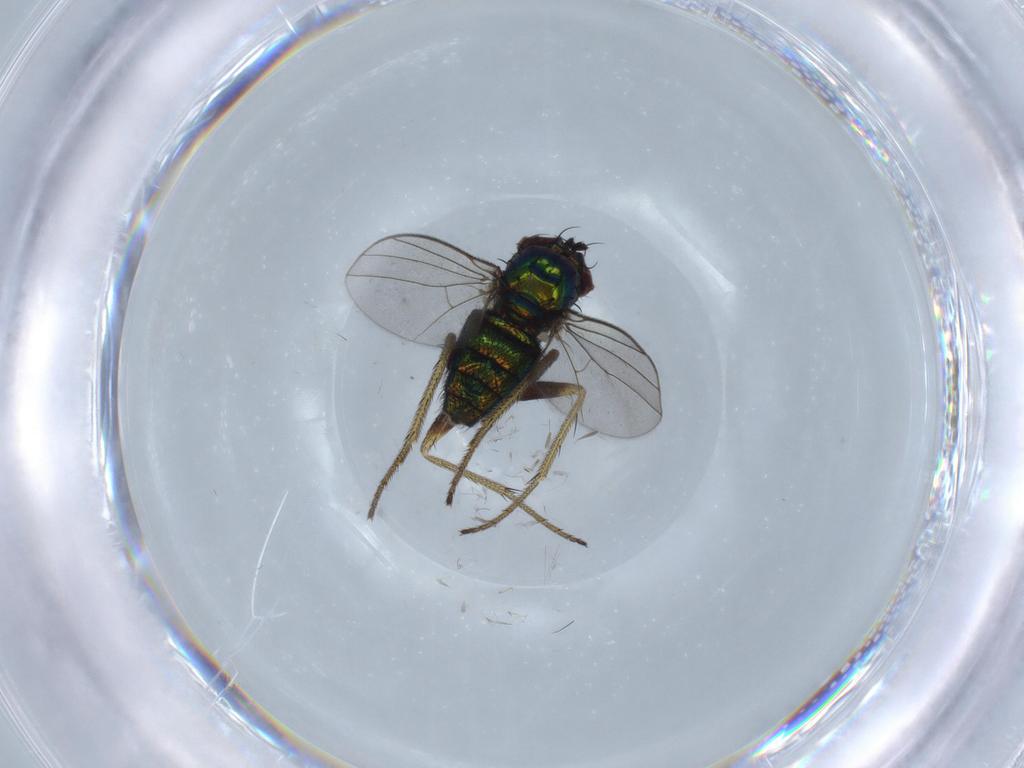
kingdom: Animalia
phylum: Arthropoda
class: Insecta
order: Diptera
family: Dolichopodidae
